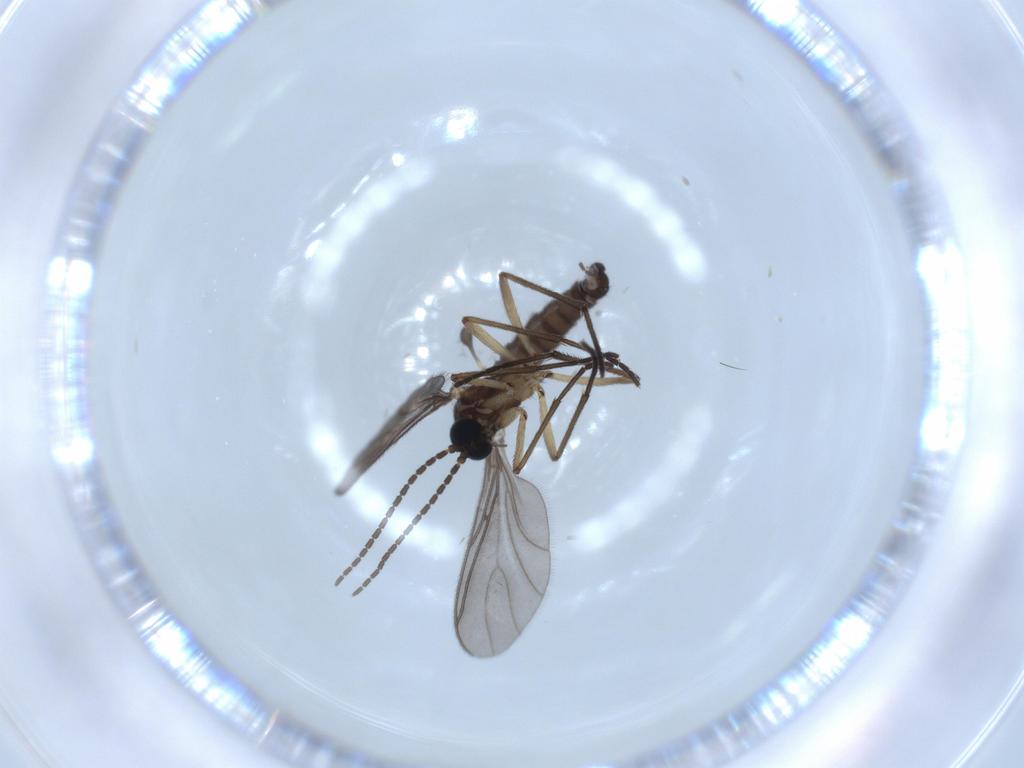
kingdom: Animalia
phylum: Arthropoda
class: Insecta
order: Diptera
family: Sciaridae
